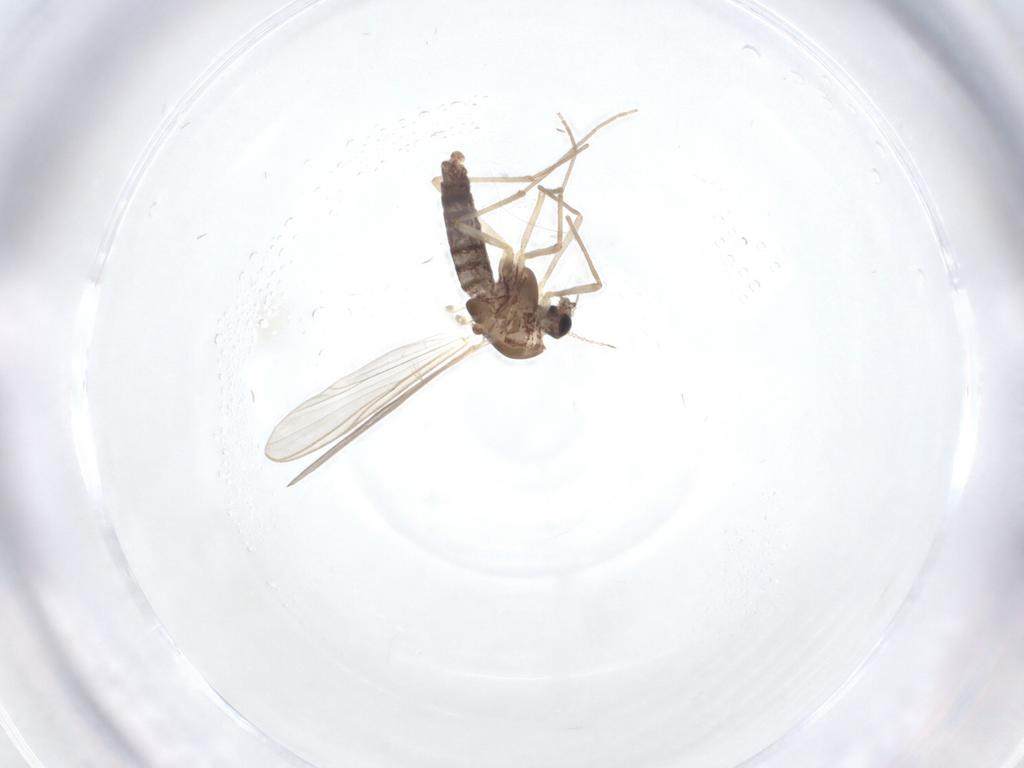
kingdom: Animalia
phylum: Arthropoda
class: Insecta
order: Diptera
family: Chironomidae
